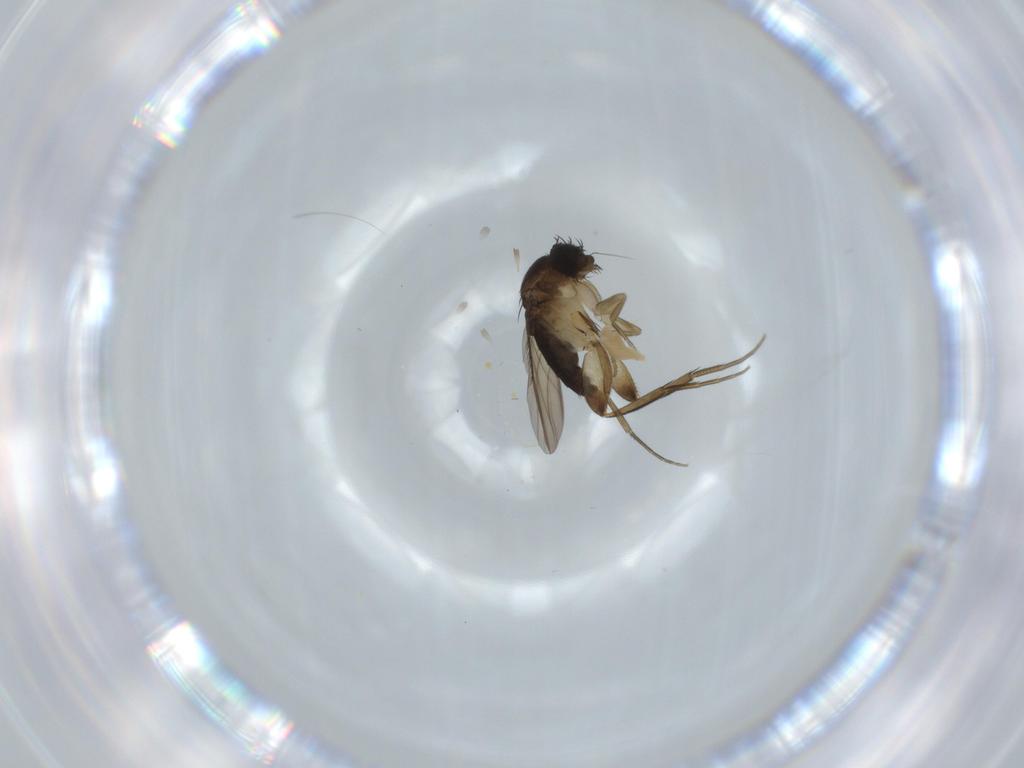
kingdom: Animalia
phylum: Arthropoda
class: Insecta
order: Diptera
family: Phoridae
